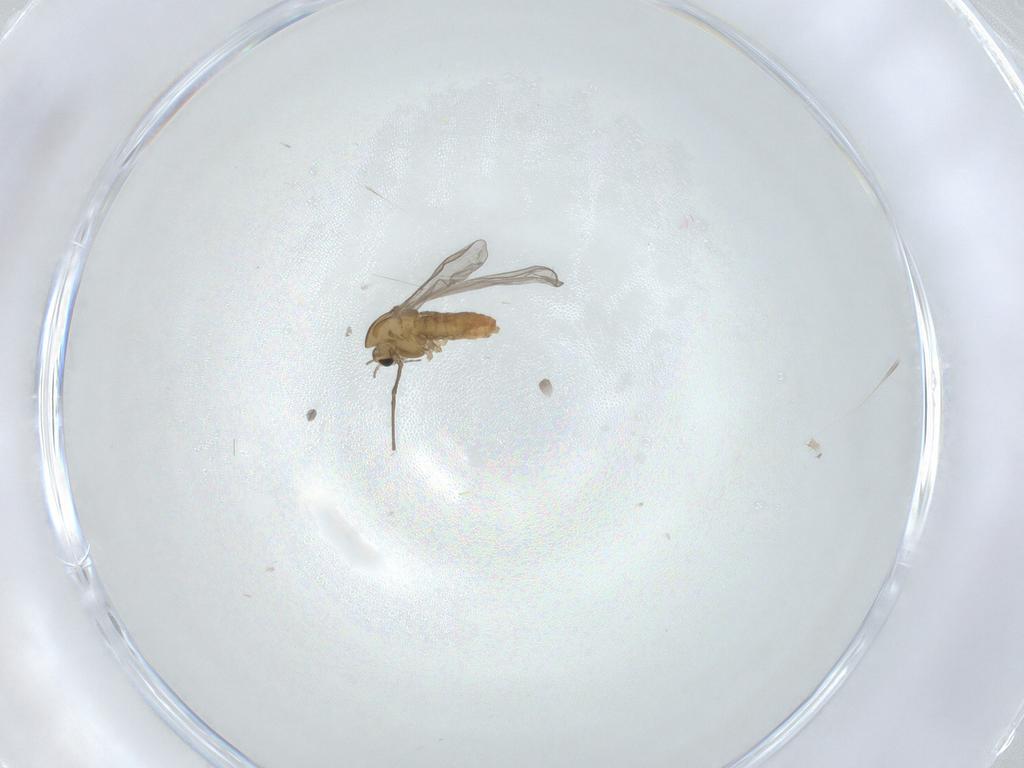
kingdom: Animalia
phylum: Arthropoda
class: Insecta
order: Diptera
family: Chironomidae
